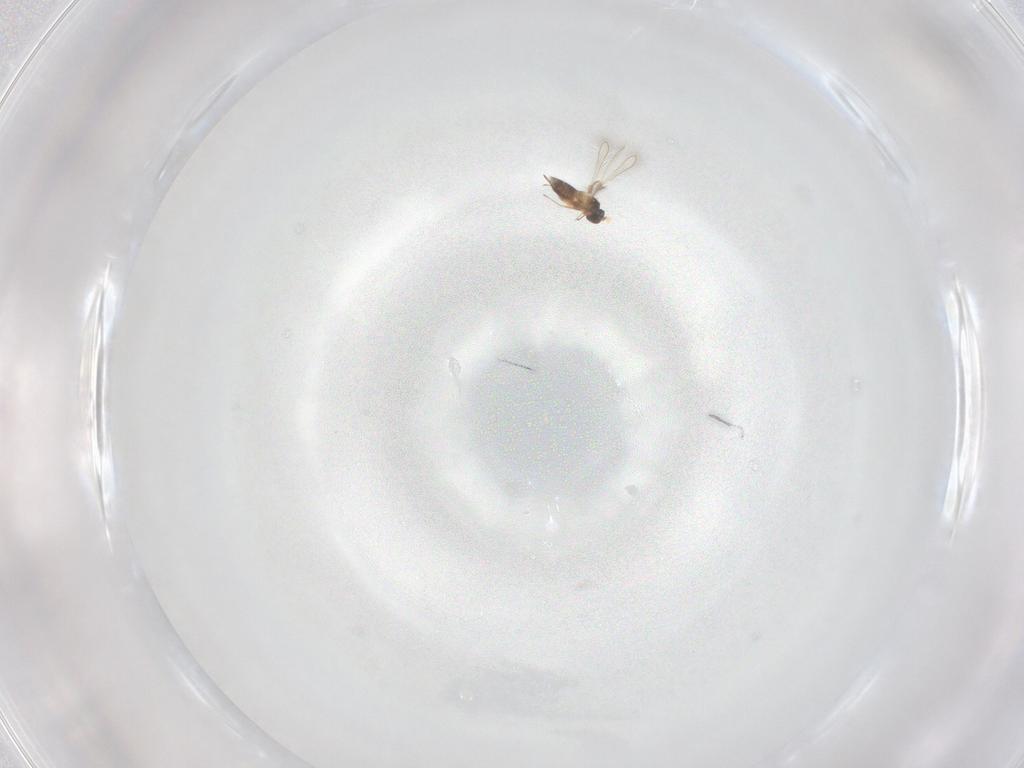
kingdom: Animalia
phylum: Arthropoda
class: Insecta
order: Hymenoptera
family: Mymaridae
